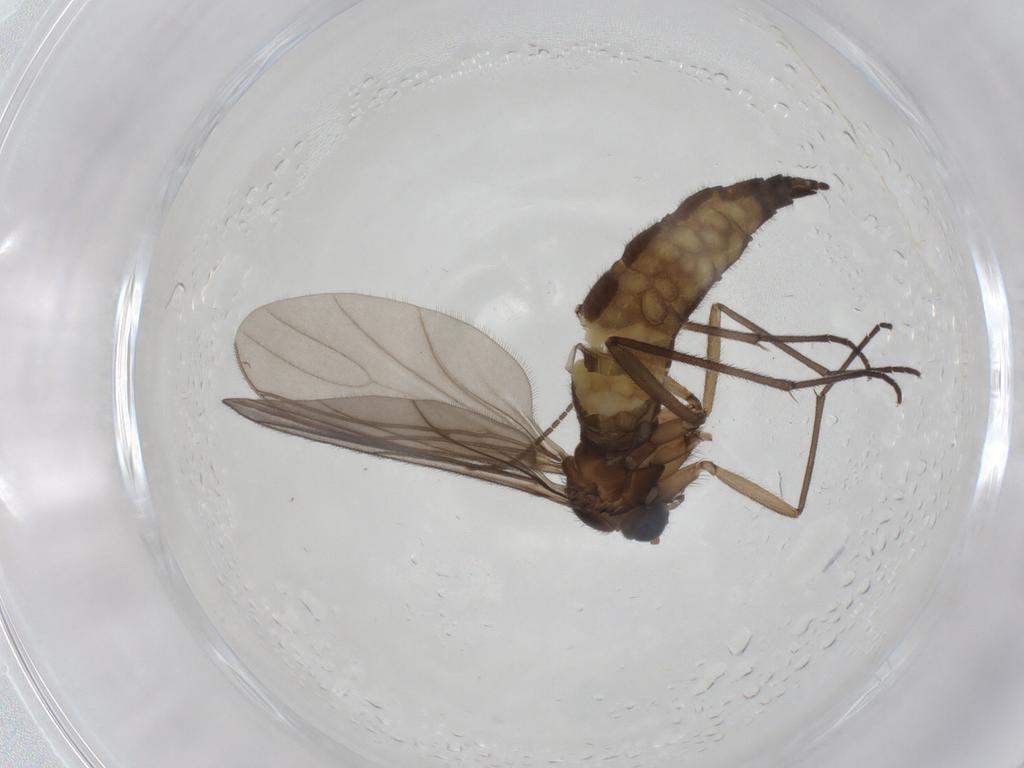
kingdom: Animalia
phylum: Arthropoda
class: Insecta
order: Diptera
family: Sciaridae
